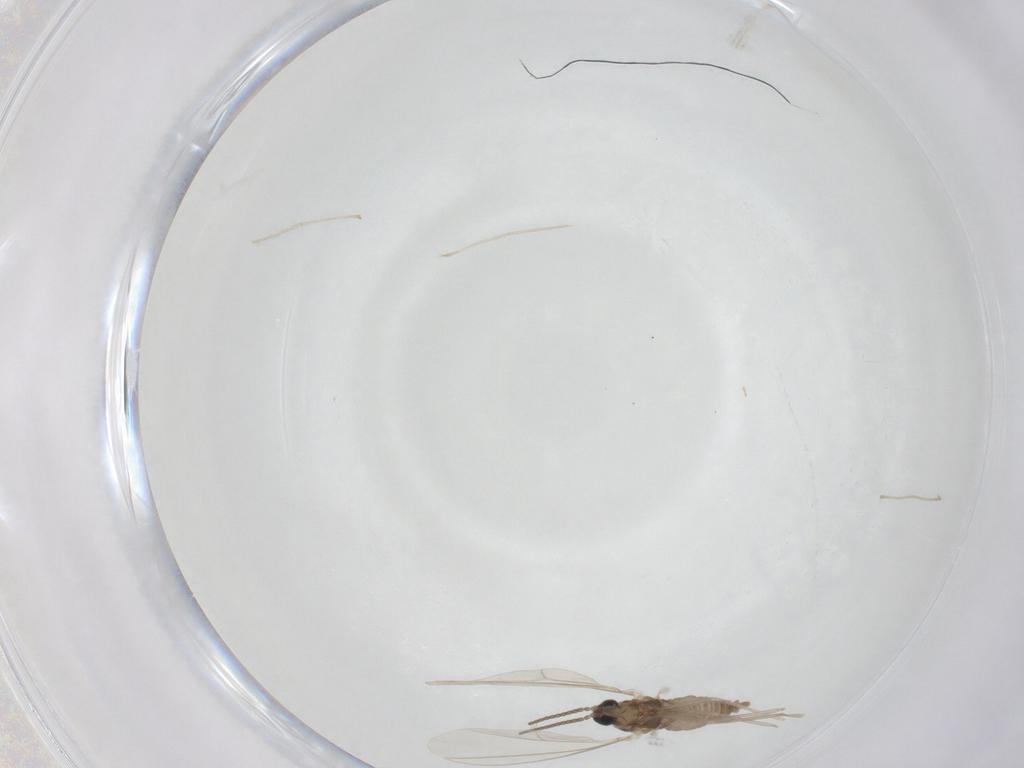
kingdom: Animalia
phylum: Arthropoda
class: Insecta
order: Diptera
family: Cecidomyiidae
